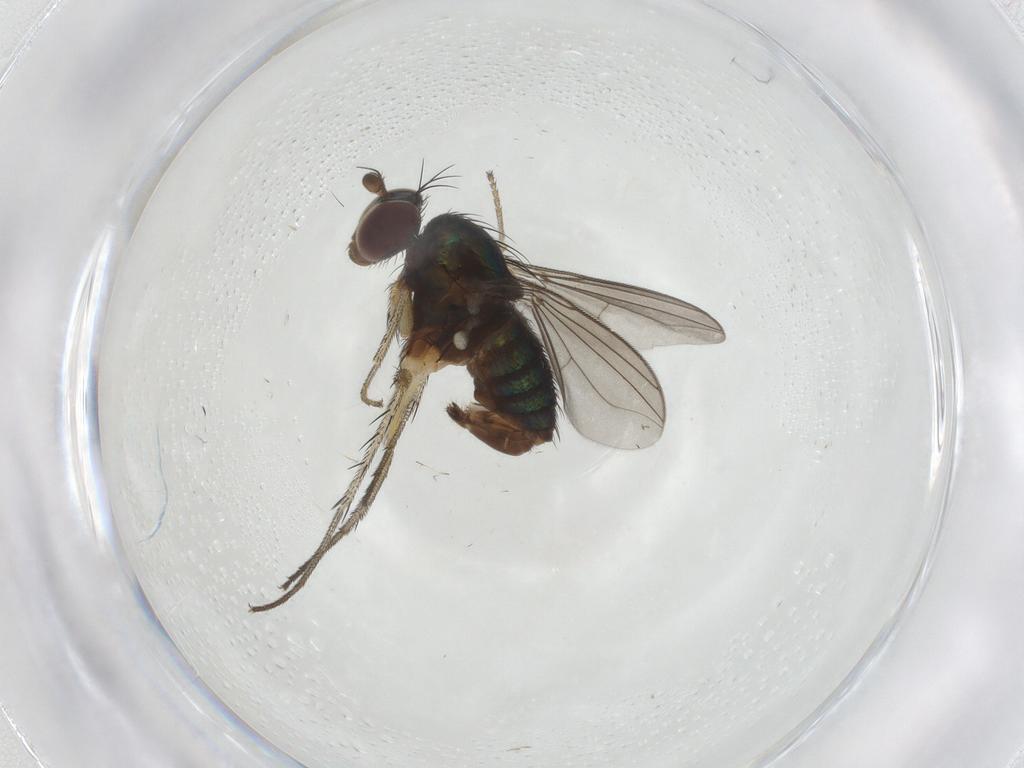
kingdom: Animalia
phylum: Arthropoda
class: Insecta
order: Diptera
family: Dolichopodidae
